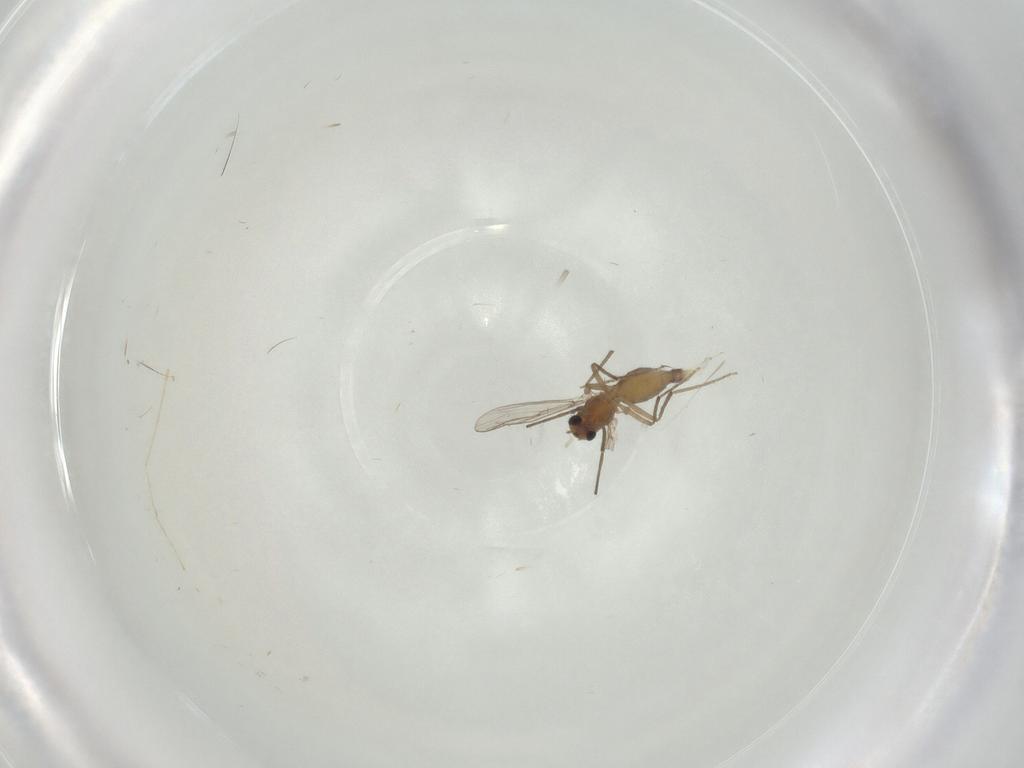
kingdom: Animalia
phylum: Arthropoda
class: Insecta
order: Diptera
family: Chironomidae
